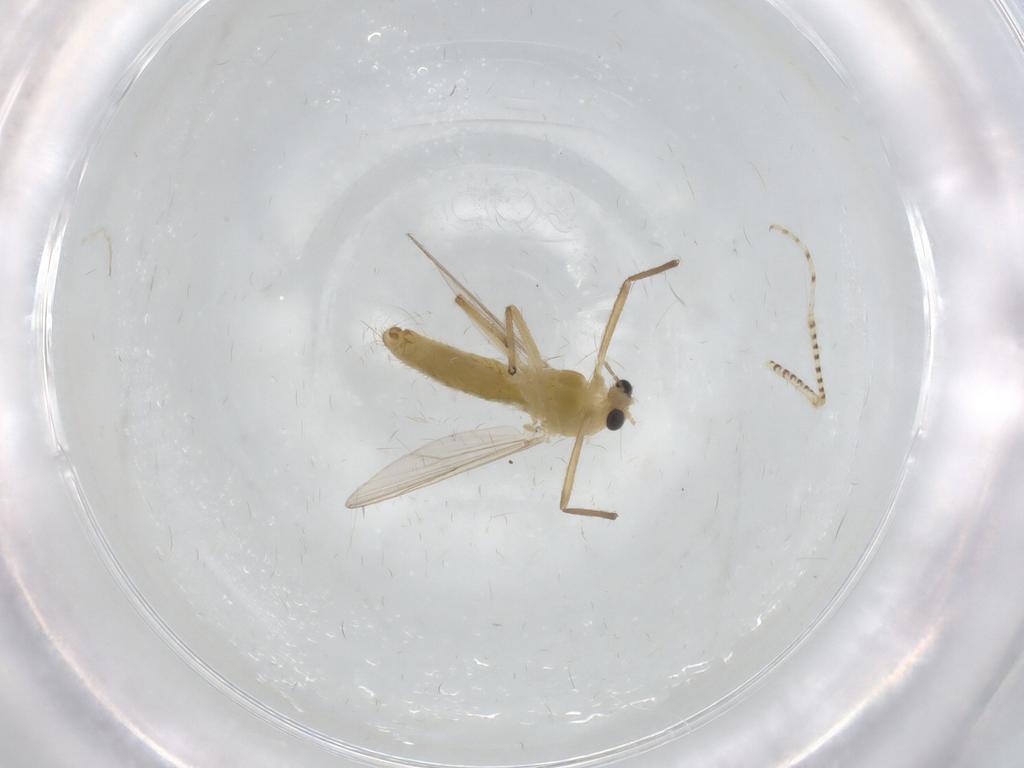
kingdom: Animalia
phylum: Arthropoda
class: Insecta
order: Diptera
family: Chironomidae
